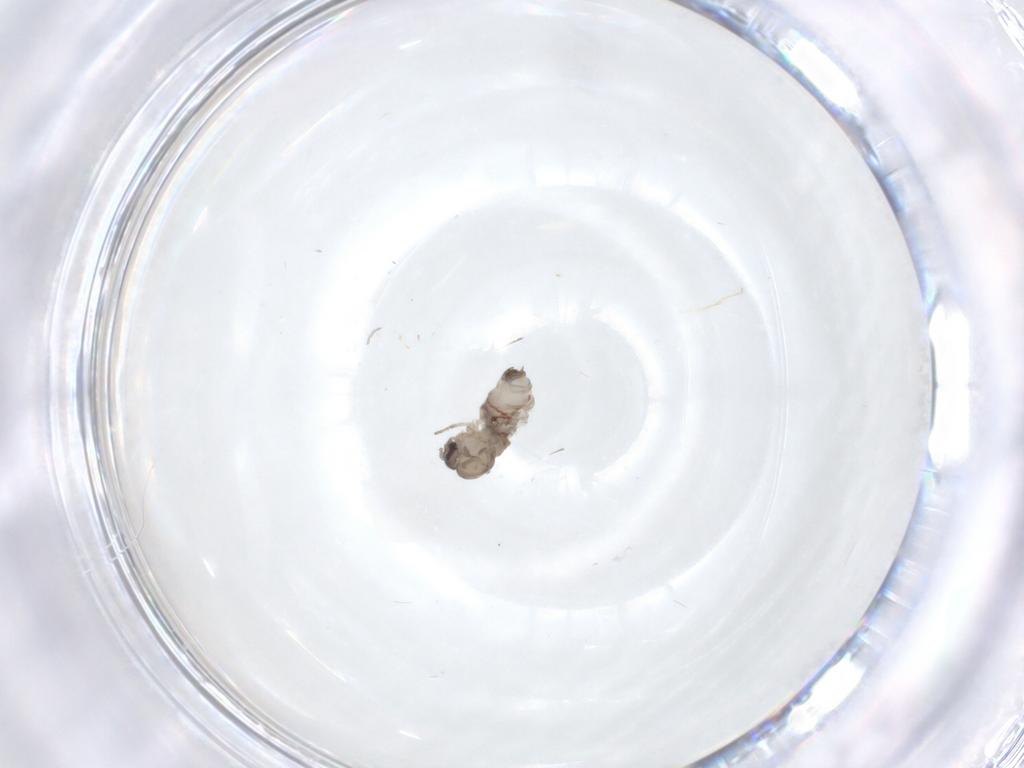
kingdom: Animalia
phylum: Arthropoda
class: Insecta
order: Diptera
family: Psychodidae
